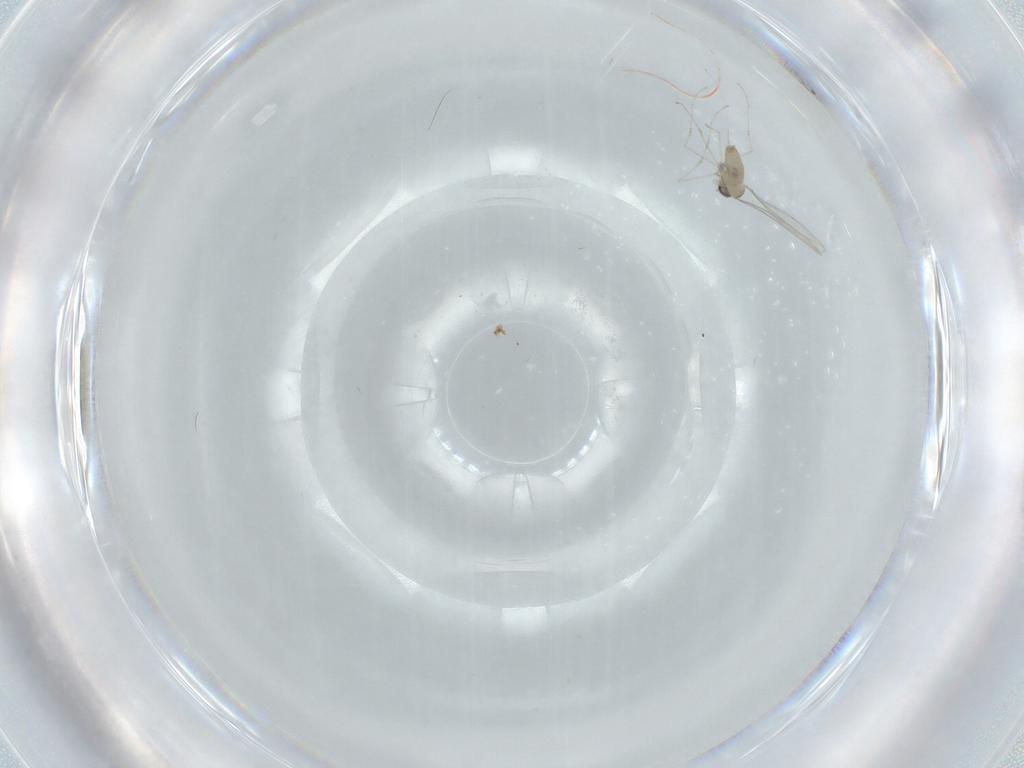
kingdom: Animalia
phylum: Arthropoda
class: Insecta
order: Diptera
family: Cecidomyiidae
